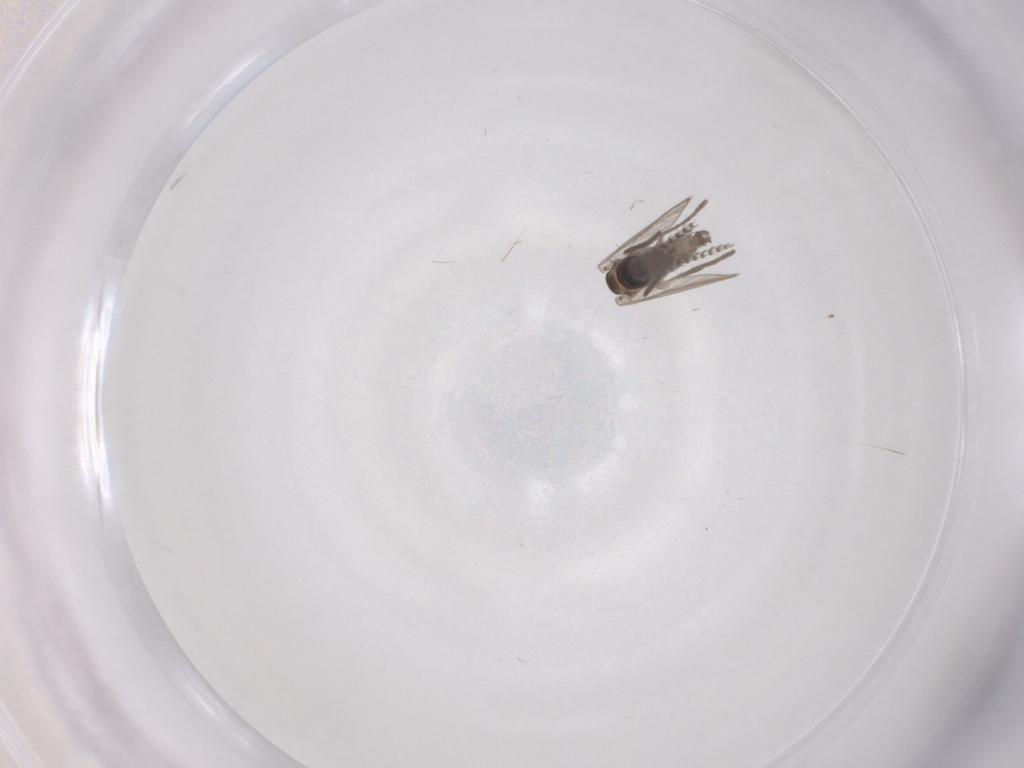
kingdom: Animalia
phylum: Arthropoda
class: Insecta
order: Diptera
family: Psychodidae
